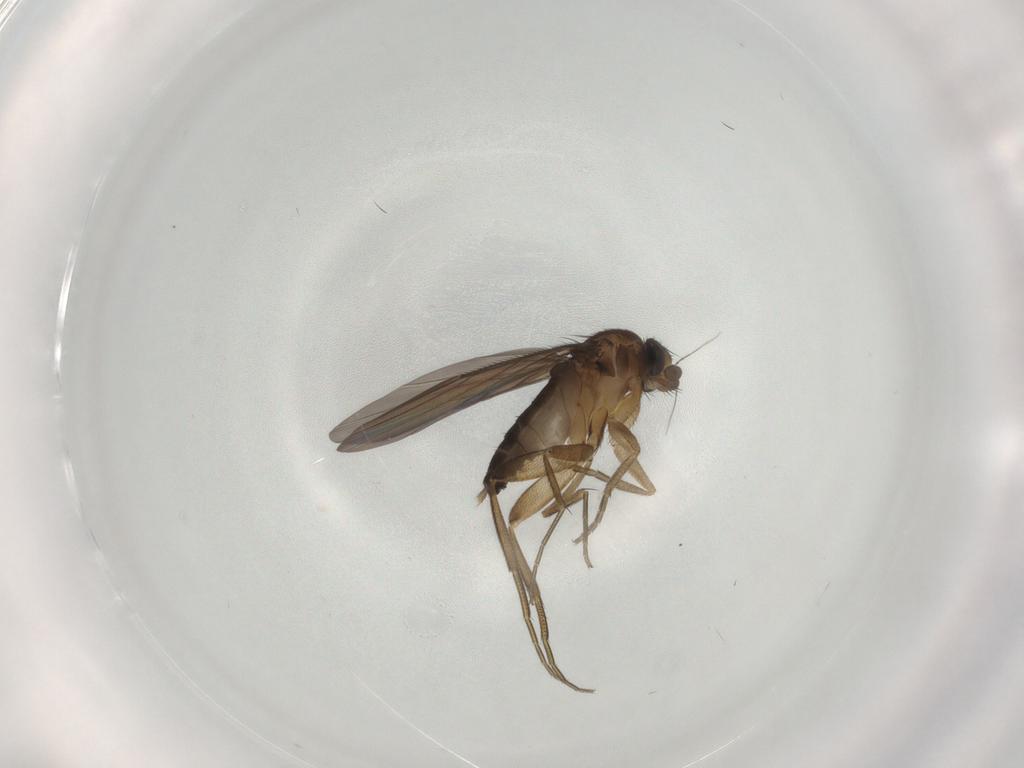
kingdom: Animalia
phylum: Arthropoda
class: Insecta
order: Diptera
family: Phoridae
